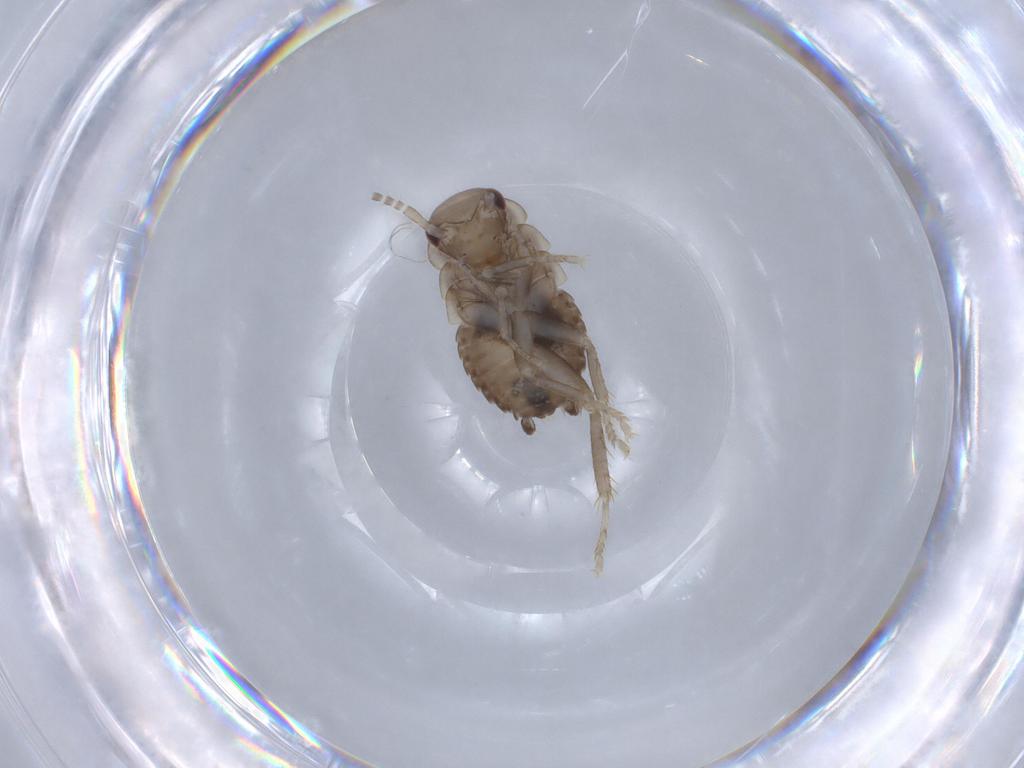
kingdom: Animalia
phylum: Arthropoda
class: Insecta
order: Blattodea
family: Ectobiidae
